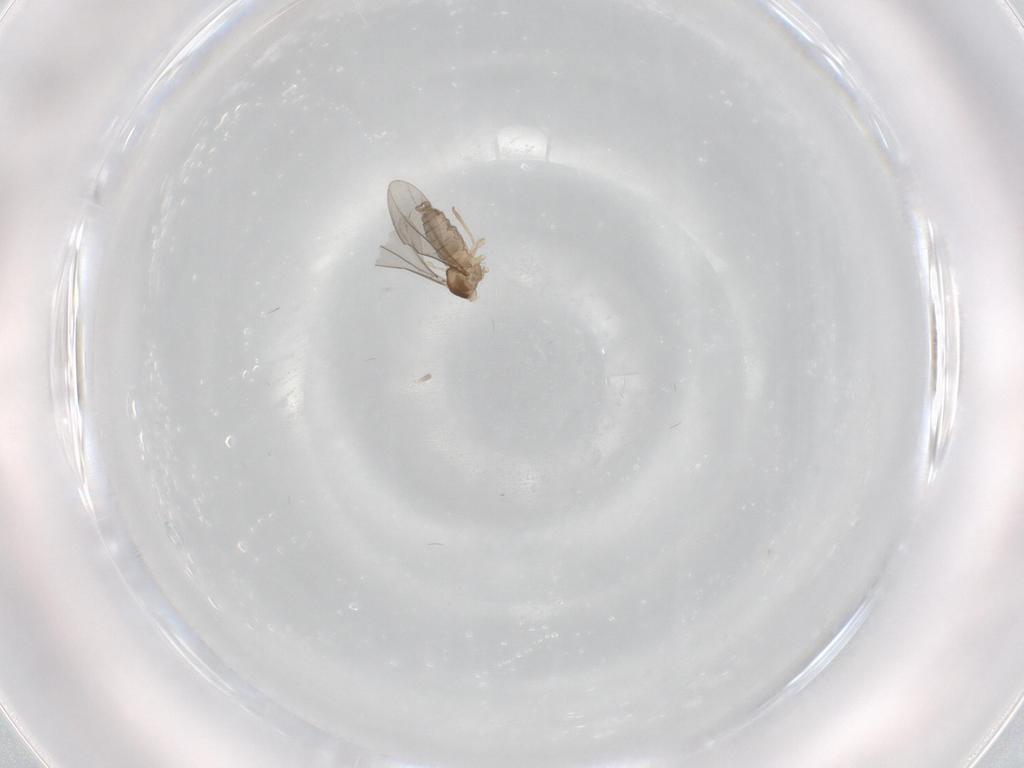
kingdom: Animalia
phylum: Arthropoda
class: Insecta
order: Diptera
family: Cecidomyiidae
